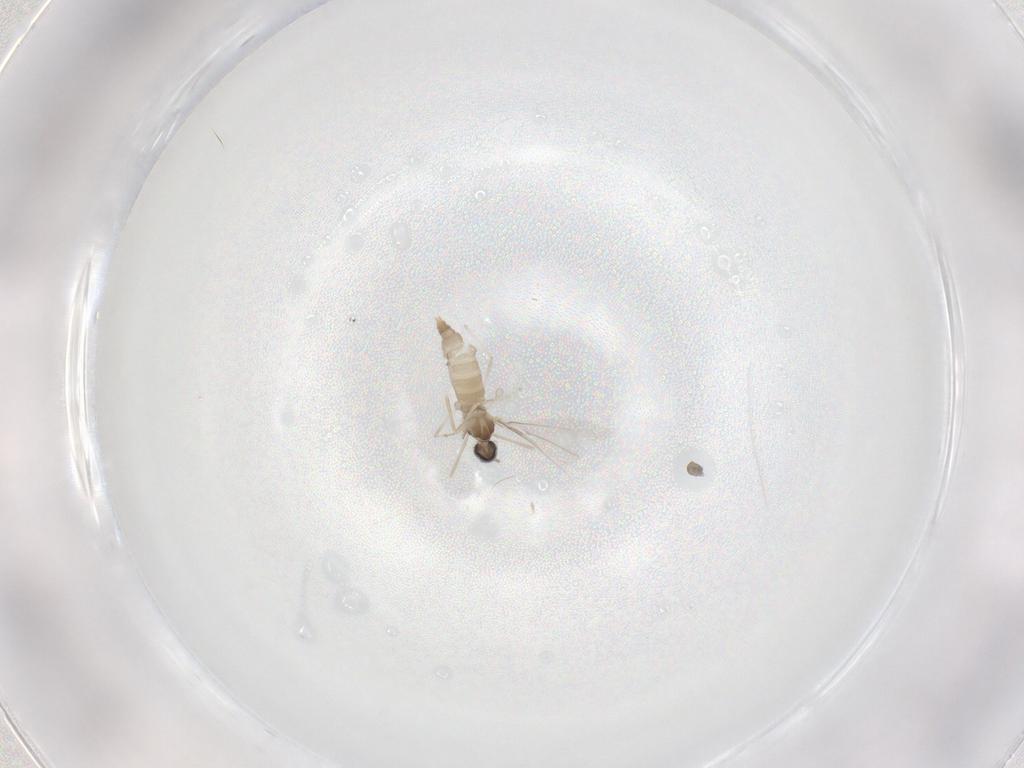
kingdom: Animalia
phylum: Arthropoda
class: Insecta
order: Diptera
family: Cecidomyiidae
